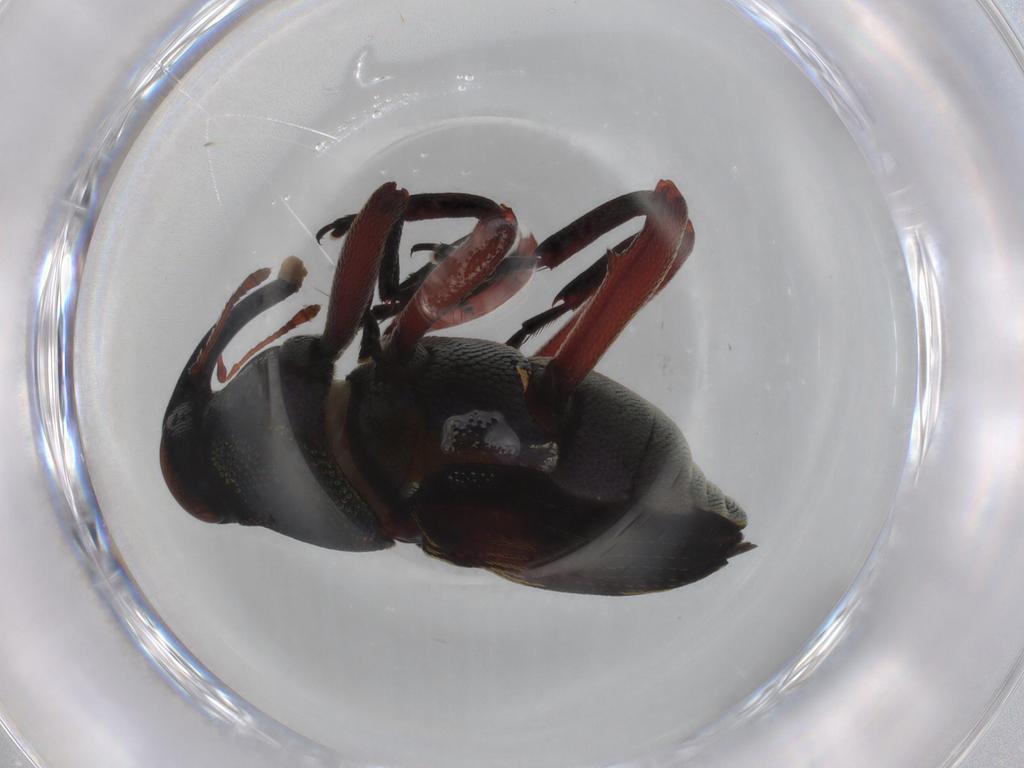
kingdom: Animalia
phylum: Arthropoda
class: Insecta
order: Coleoptera
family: Curculionidae
